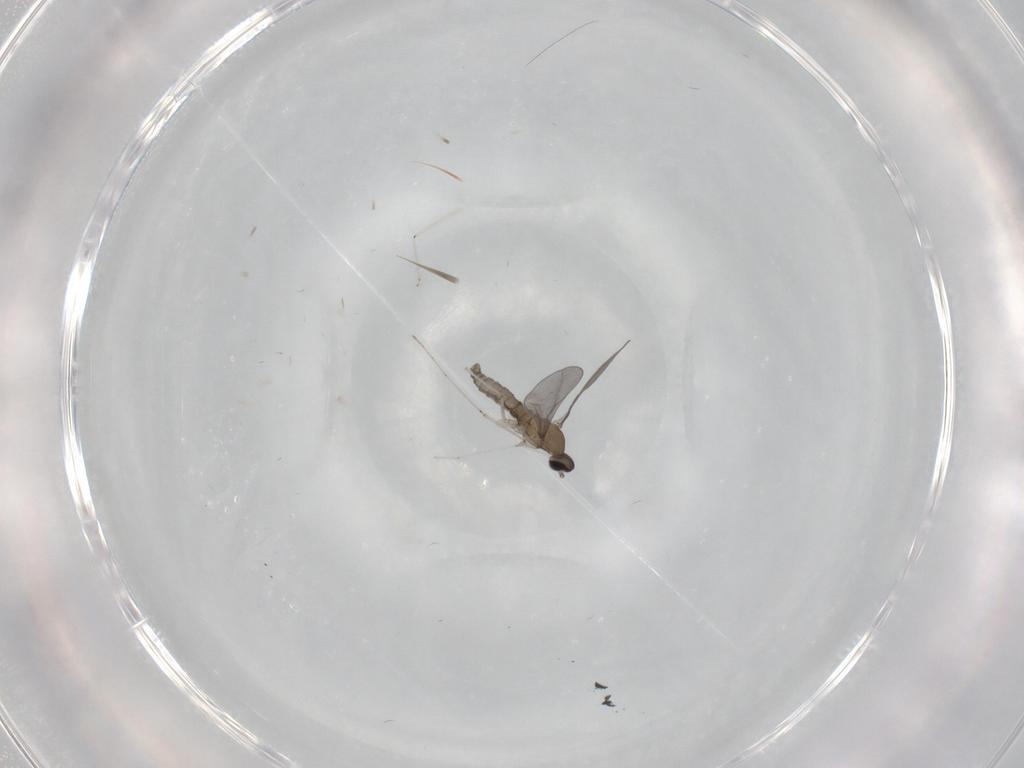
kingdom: Animalia
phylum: Arthropoda
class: Insecta
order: Diptera
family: Cecidomyiidae
